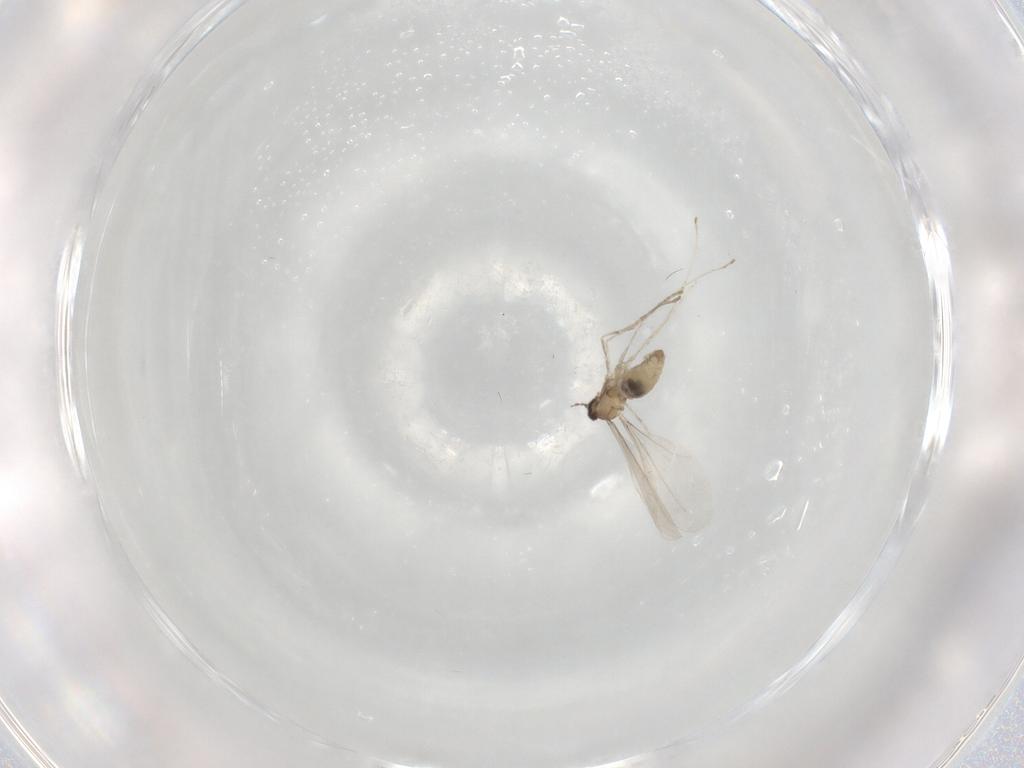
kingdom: Animalia
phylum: Arthropoda
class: Insecta
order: Diptera
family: Cecidomyiidae
